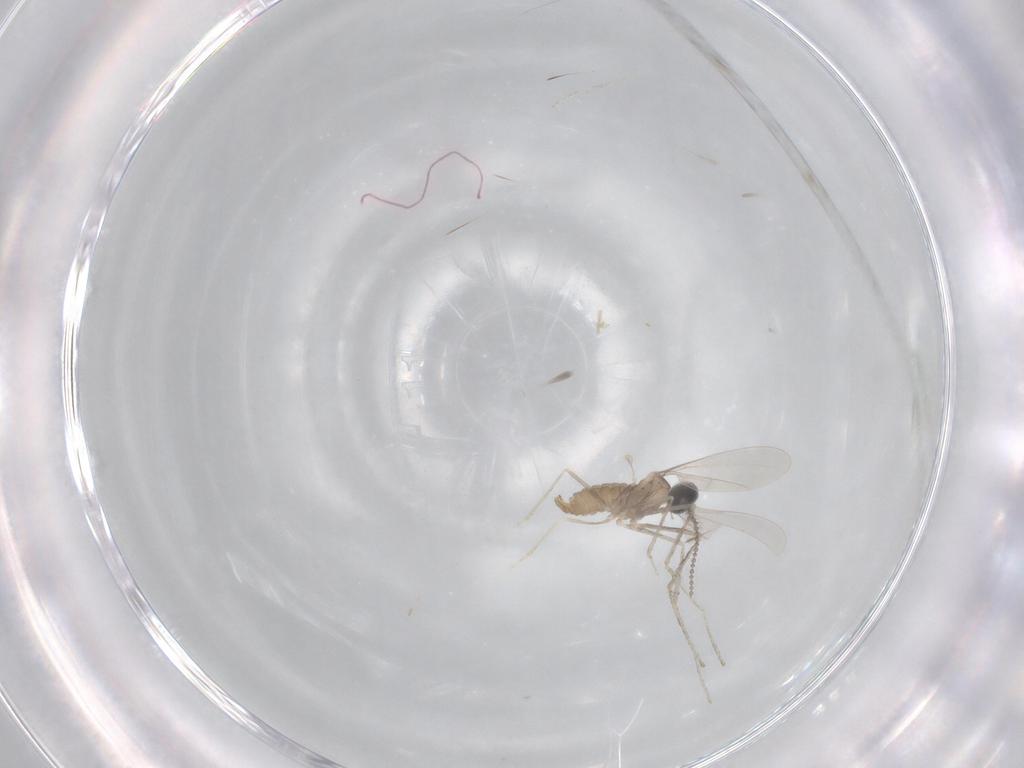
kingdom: Animalia
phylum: Arthropoda
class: Insecta
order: Diptera
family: Cecidomyiidae
